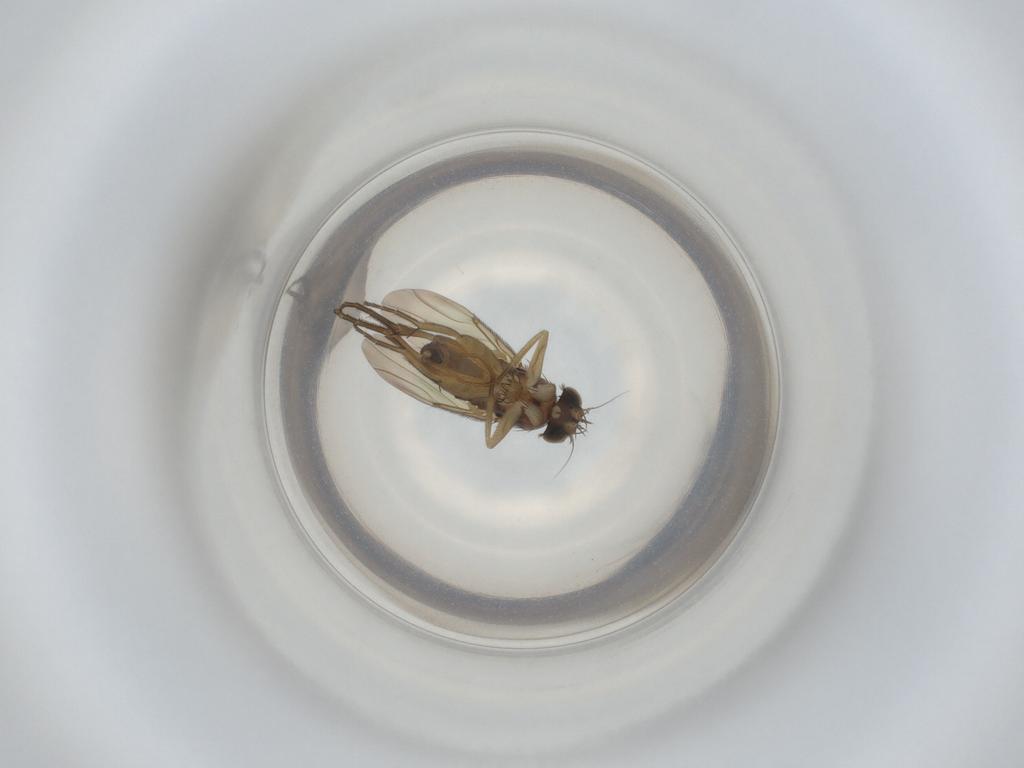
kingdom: Animalia
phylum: Arthropoda
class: Insecta
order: Diptera
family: Phoridae
